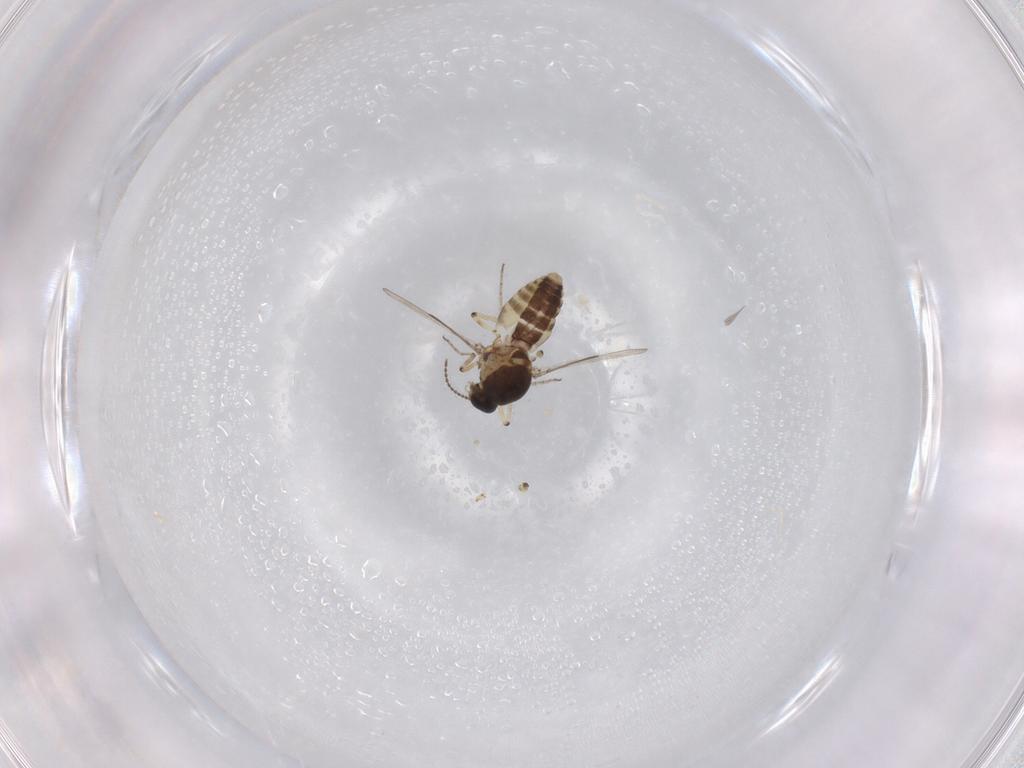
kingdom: Animalia
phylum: Arthropoda
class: Insecta
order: Diptera
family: Ceratopogonidae
